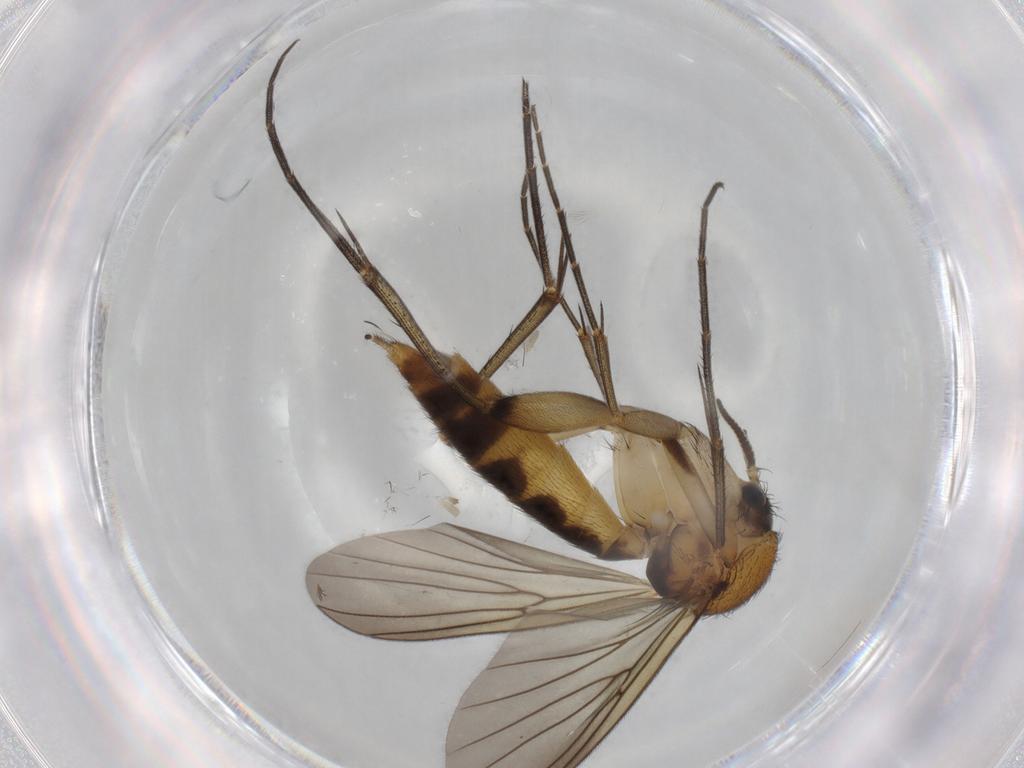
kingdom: Animalia
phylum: Arthropoda
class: Insecta
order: Diptera
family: Mycetophilidae
